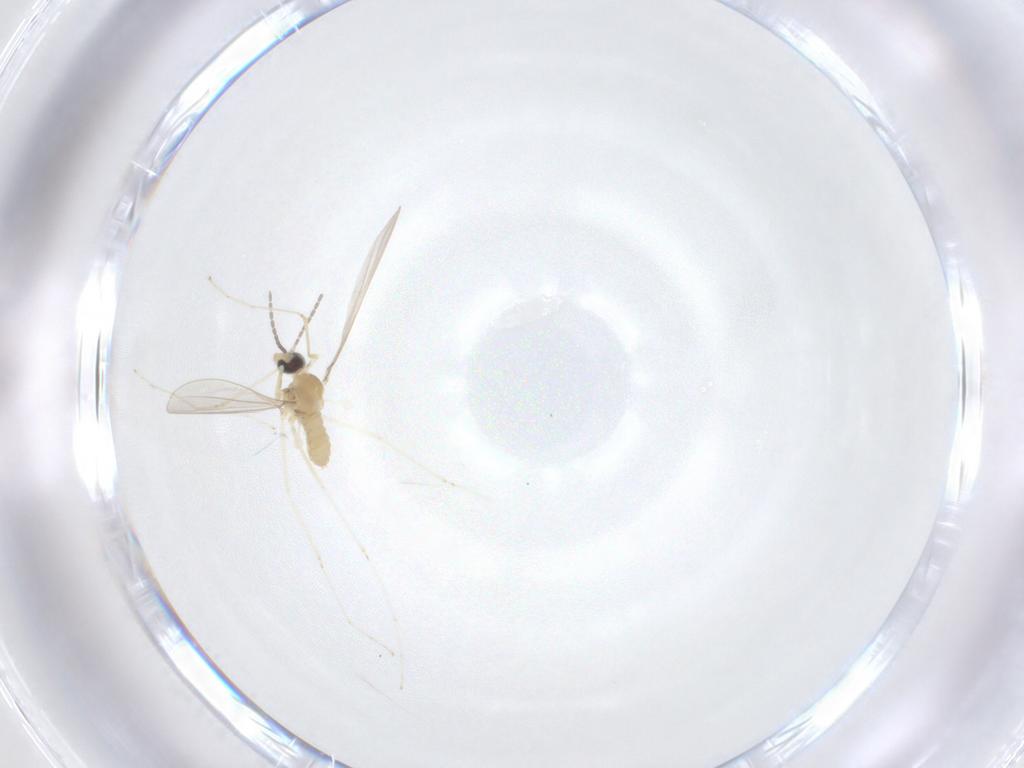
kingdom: Animalia
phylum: Arthropoda
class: Insecta
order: Diptera
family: Cecidomyiidae
